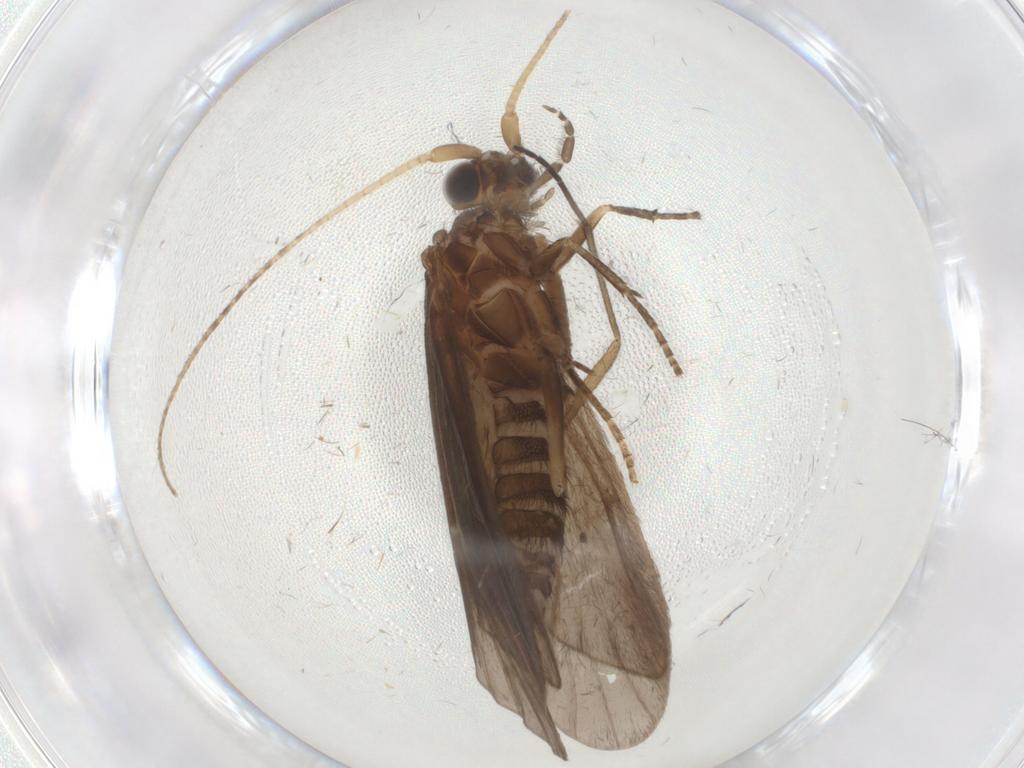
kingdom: Animalia
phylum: Arthropoda
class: Insecta
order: Trichoptera
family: Helicopsychidae
